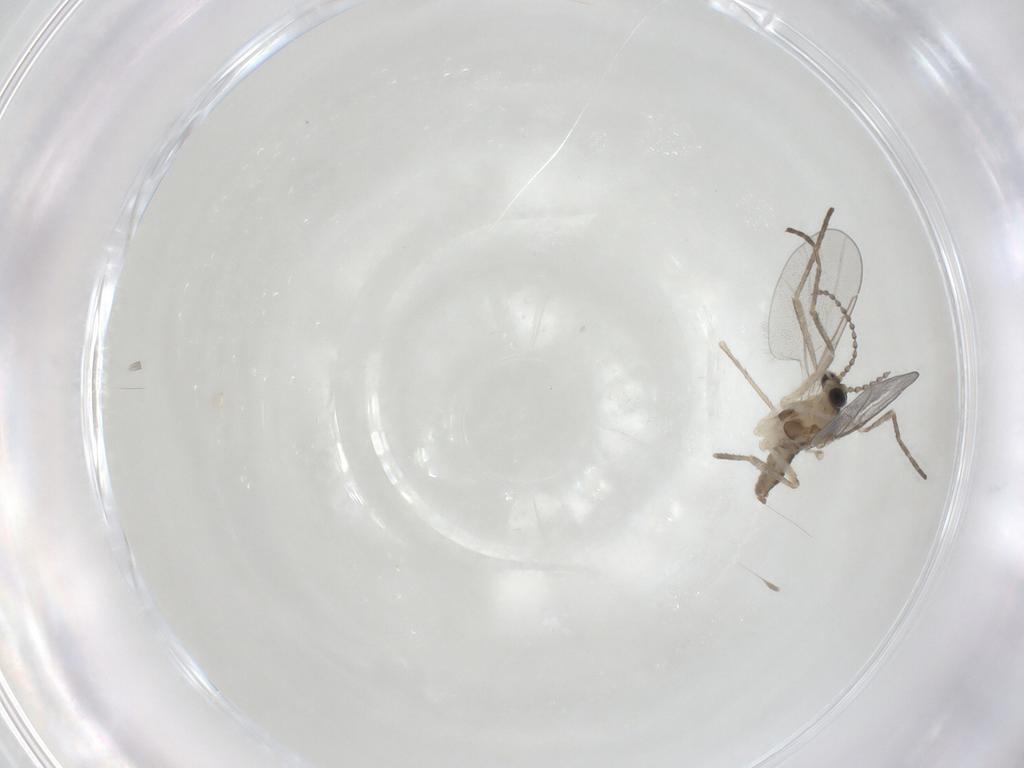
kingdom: Animalia
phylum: Arthropoda
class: Insecta
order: Diptera
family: Cecidomyiidae
